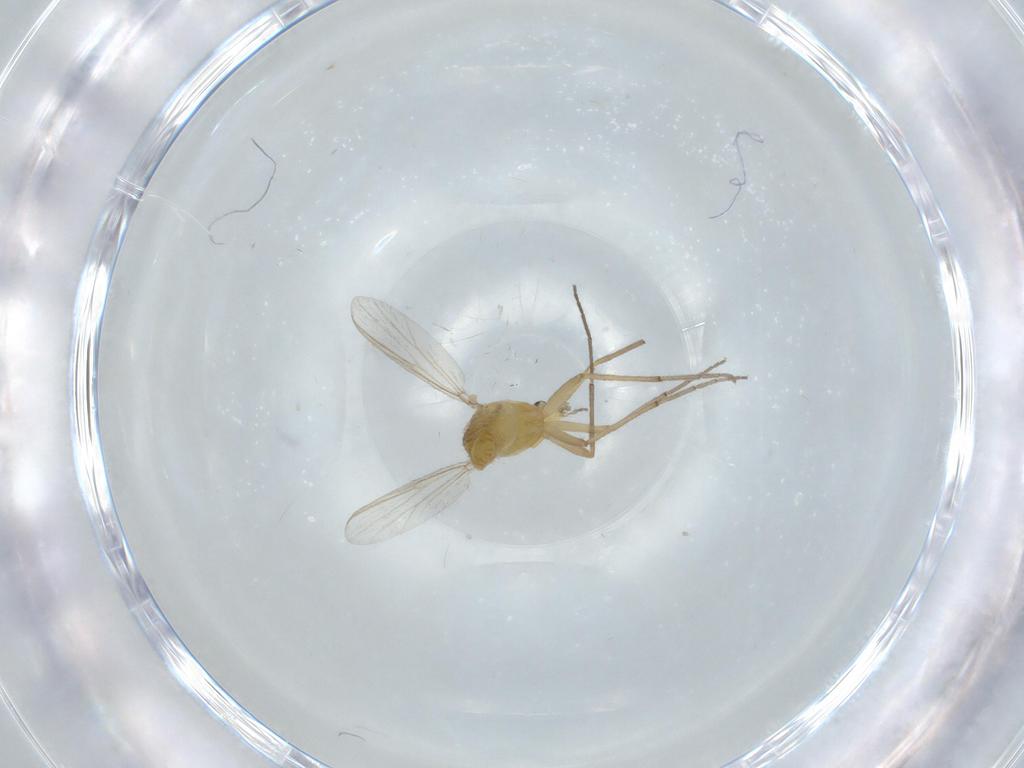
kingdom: Animalia
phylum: Arthropoda
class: Insecta
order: Diptera
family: Chironomidae
